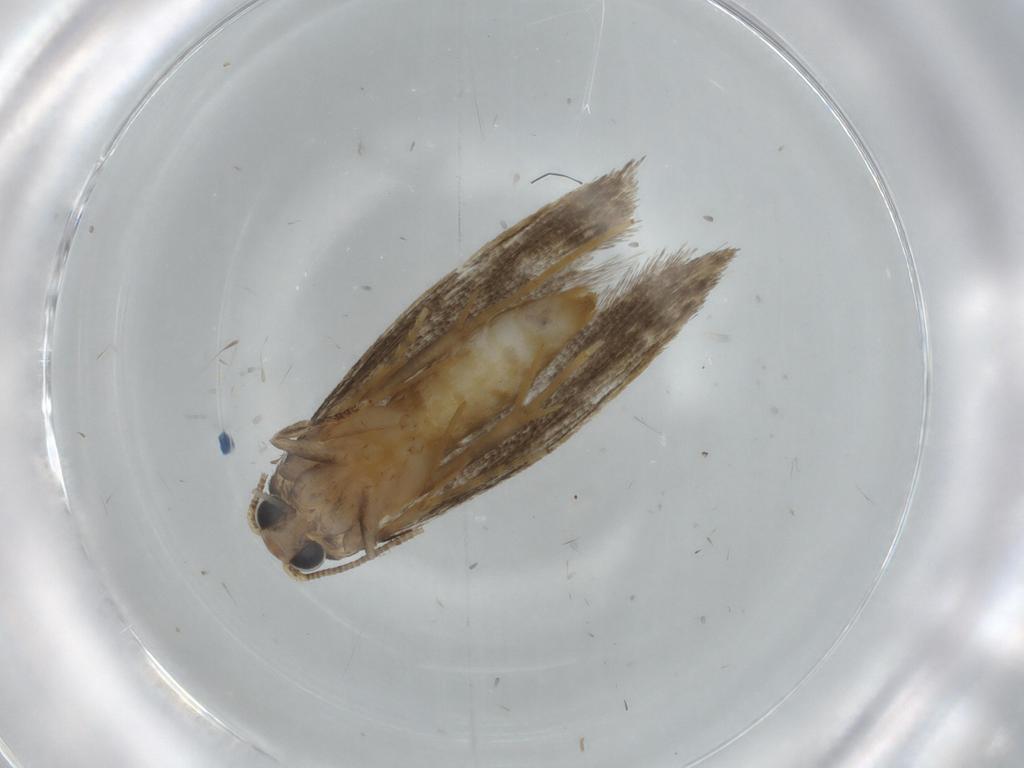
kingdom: Animalia
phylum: Arthropoda
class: Insecta
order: Lepidoptera
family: Tineidae
